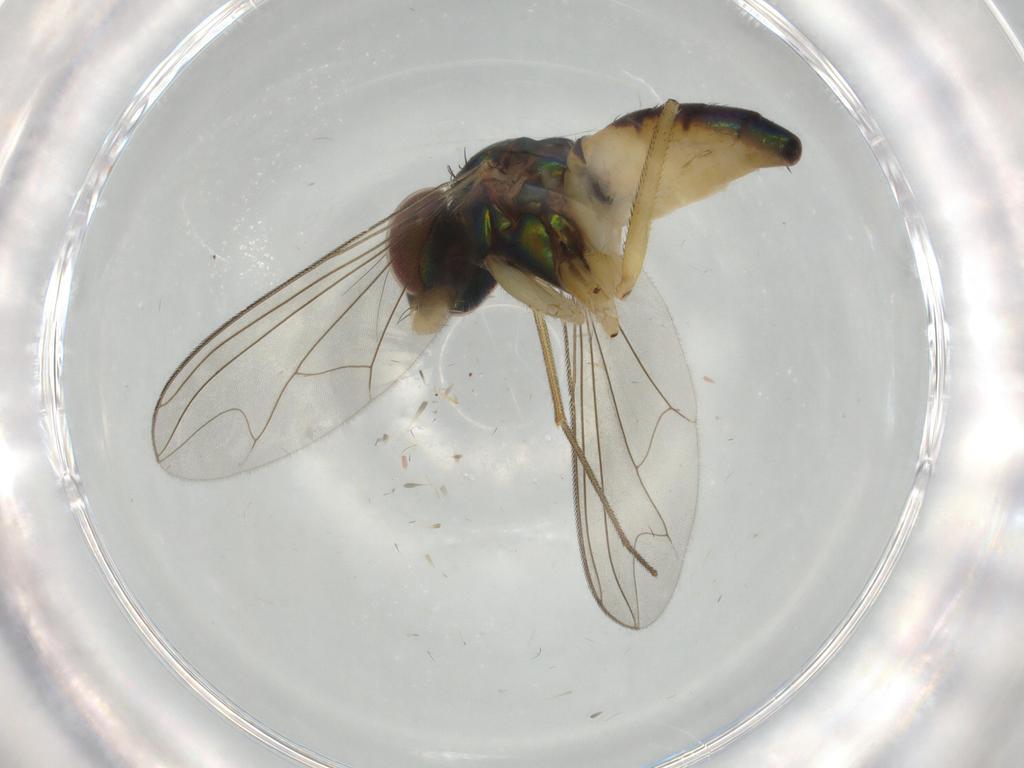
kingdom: Animalia
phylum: Arthropoda
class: Insecta
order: Diptera
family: Dolichopodidae
